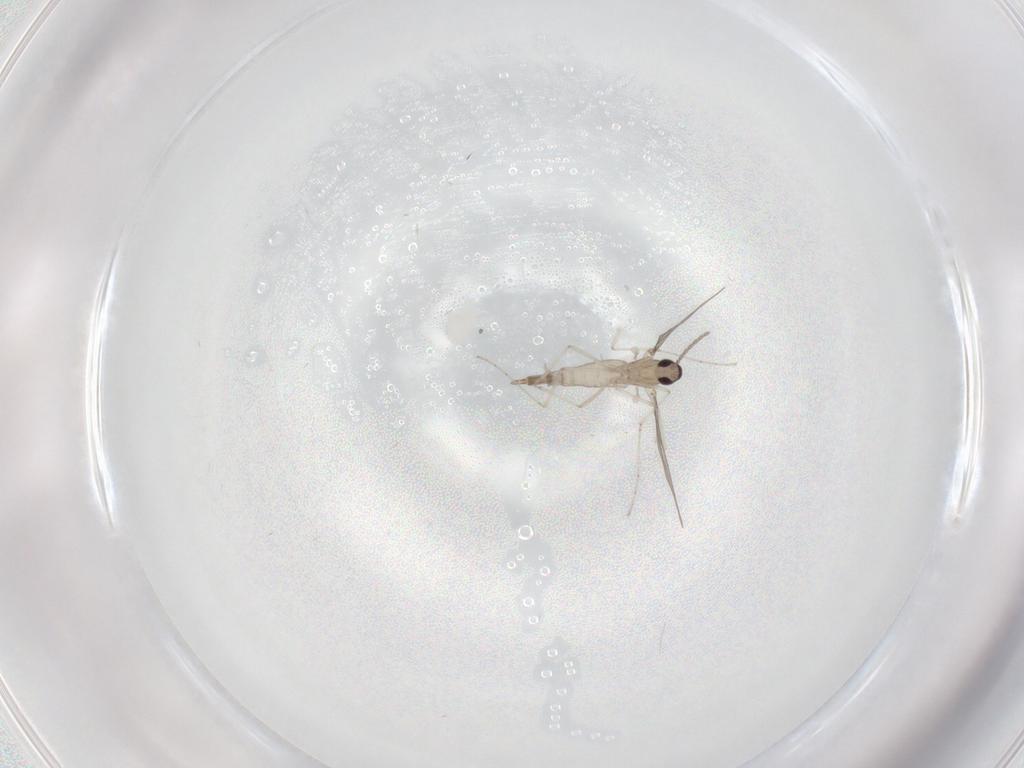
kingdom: Animalia
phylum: Arthropoda
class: Insecta
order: Diptera
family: Cecidomyiidae
